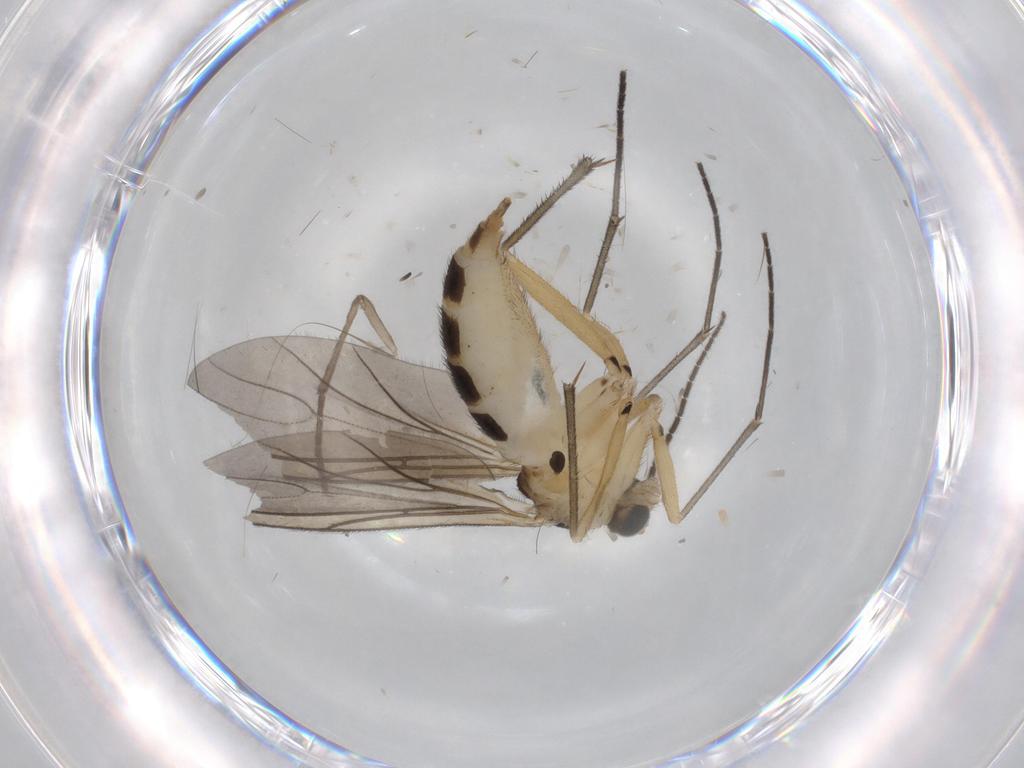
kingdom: Animalia
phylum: Arthropoda
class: Insecta
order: Diptera
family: Sciaridae
